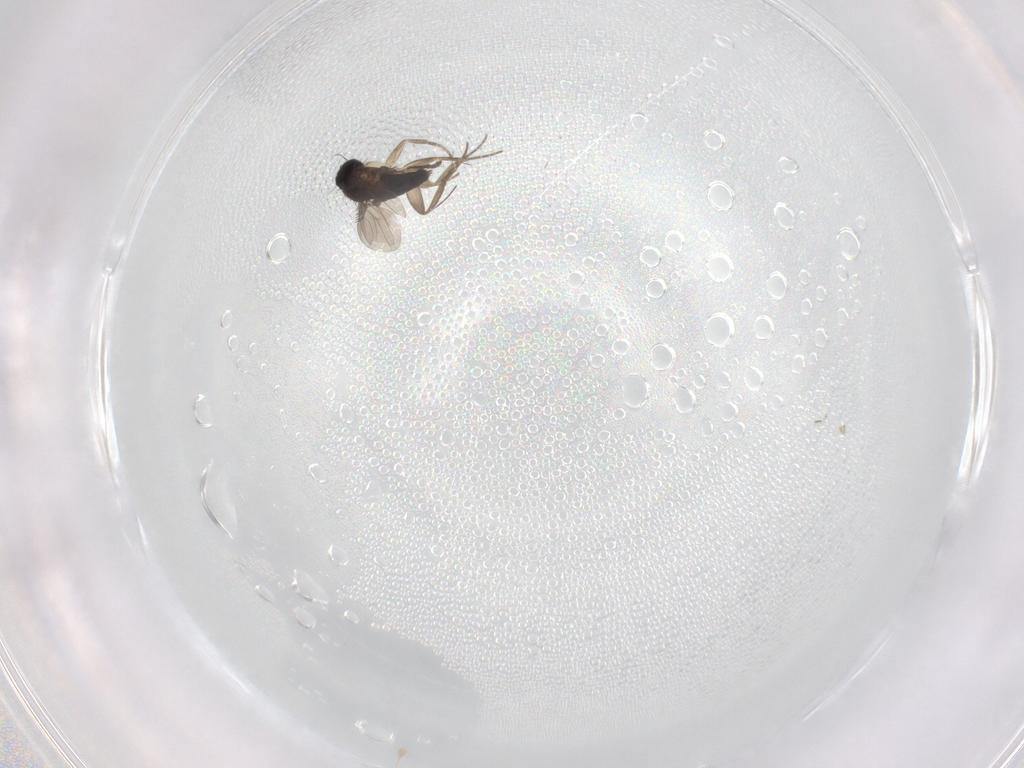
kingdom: Animalia
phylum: Arthropoda
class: Insecta
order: Diptera
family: Phoridae
